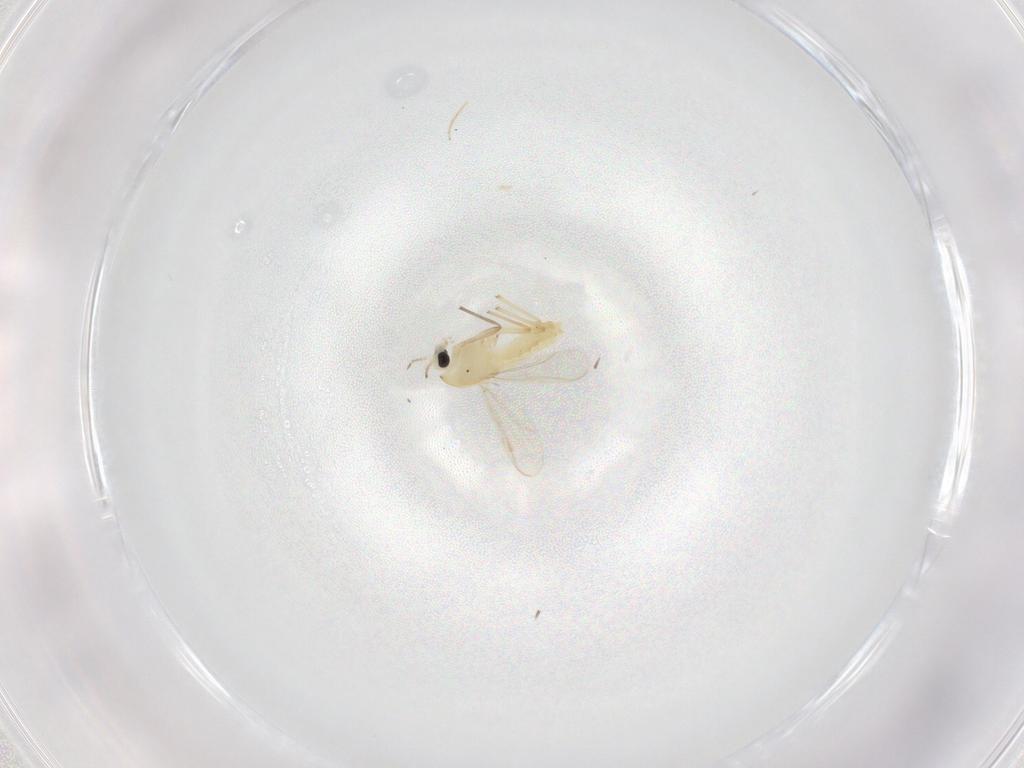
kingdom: Animalia
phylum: Arthropoda
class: Insecta
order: Diptera
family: Chironomidae
